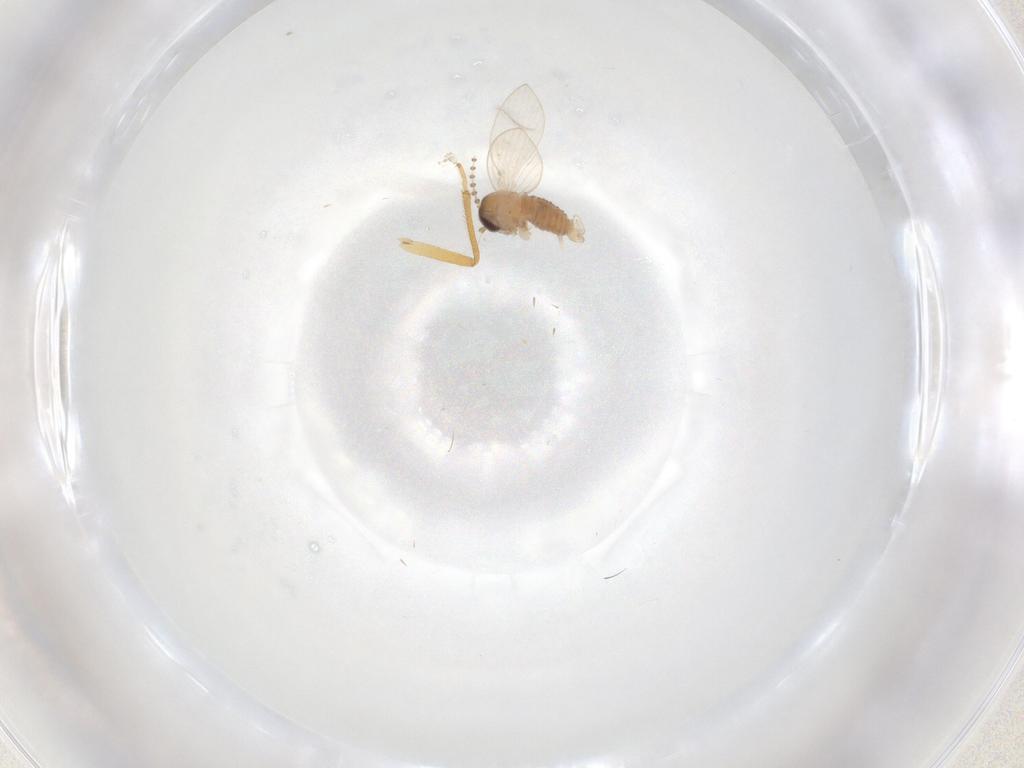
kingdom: Animalia
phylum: Arthropoda
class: Insecta
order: Diptera
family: Psychodidae
